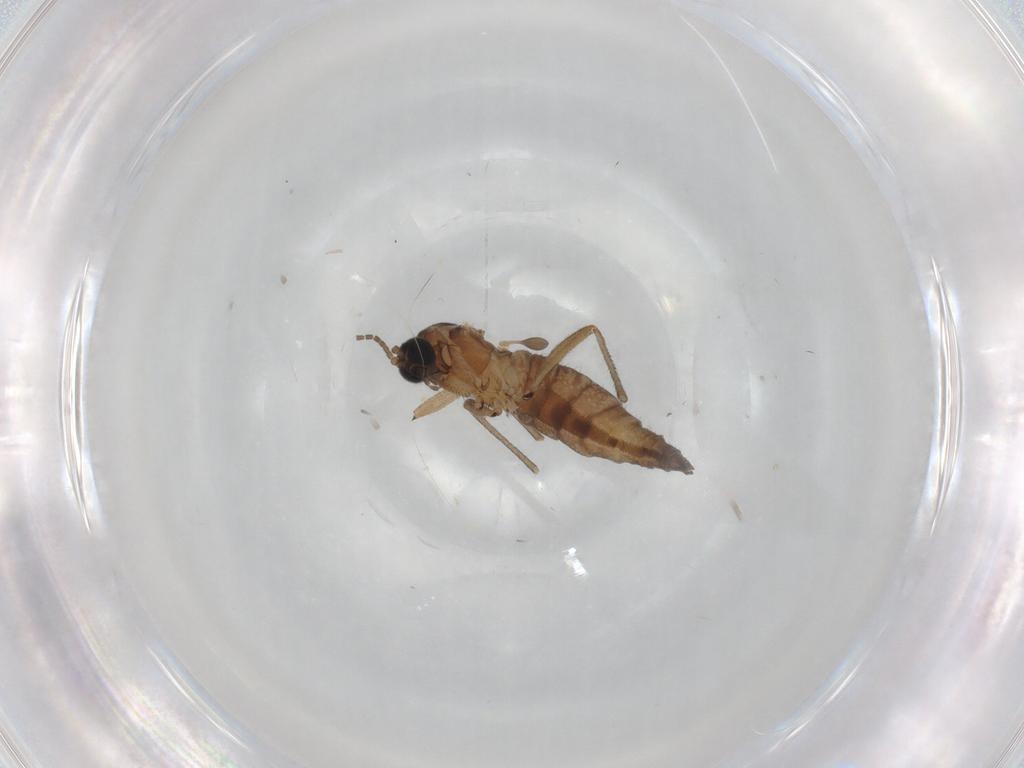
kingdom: Animalia
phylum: Arthropoda
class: Insecta
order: Diptera
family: Sciaridae
